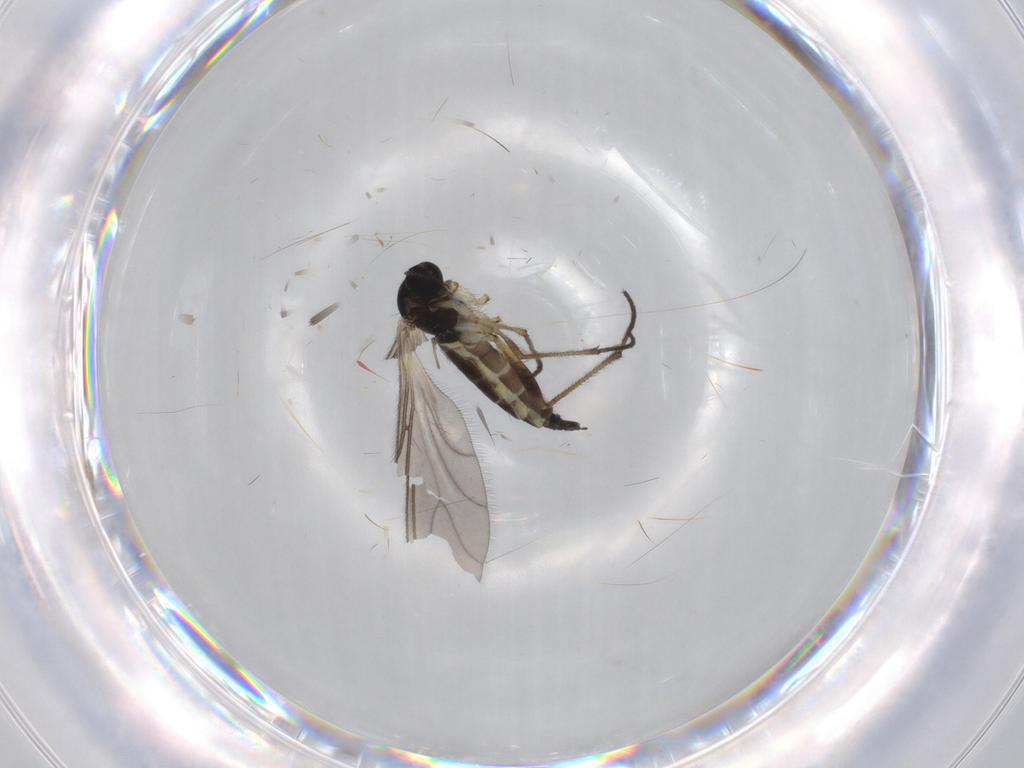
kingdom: Animalia
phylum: Arthropoda
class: Insecta
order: Diptera
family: Sciaridae
